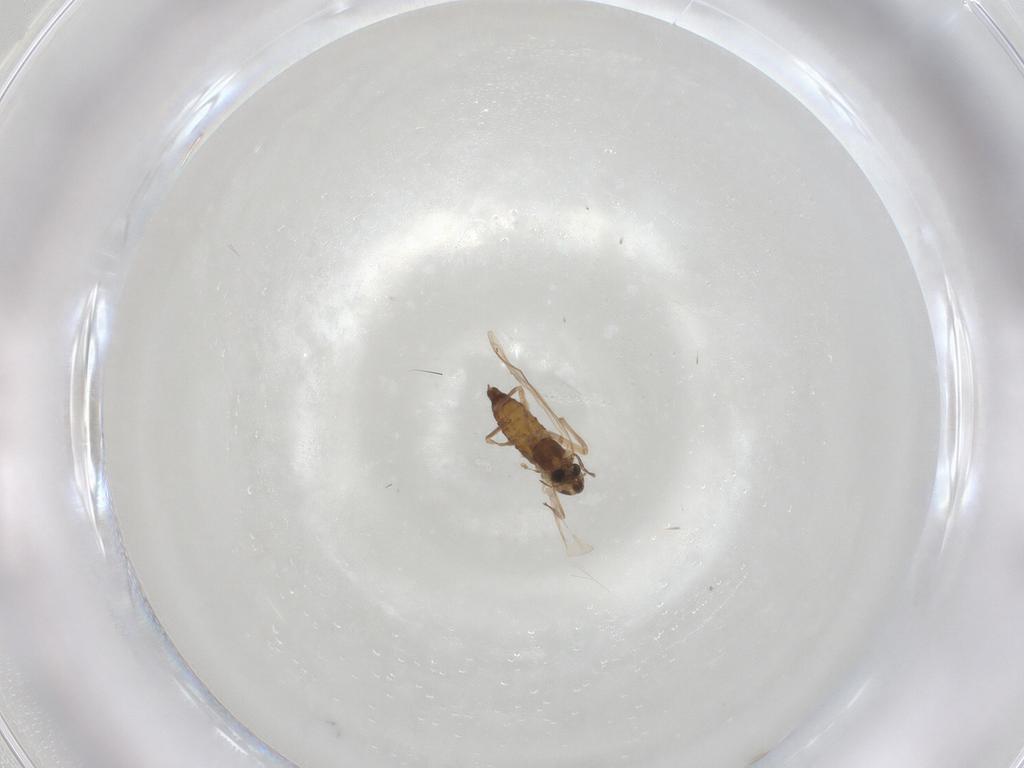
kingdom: Animalia
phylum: Arthropoda
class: Insecta
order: Diptera
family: Chironomidae
